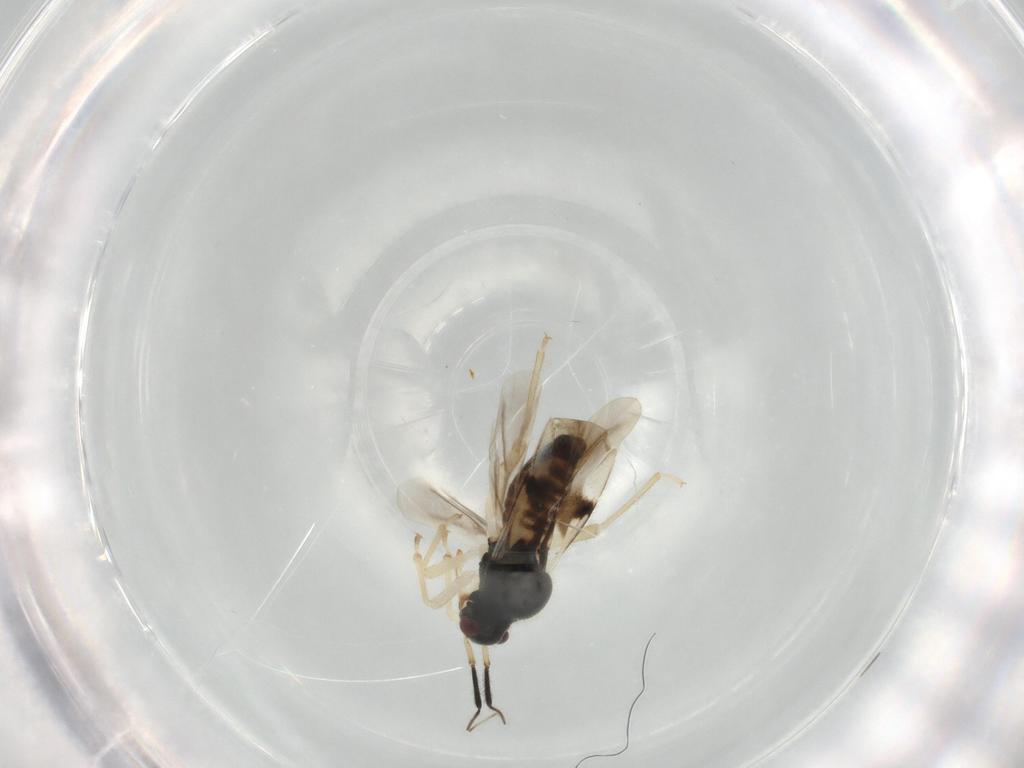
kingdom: Animalia
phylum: Arthropoda
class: Insecta
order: Hemiptera
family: Miridae
